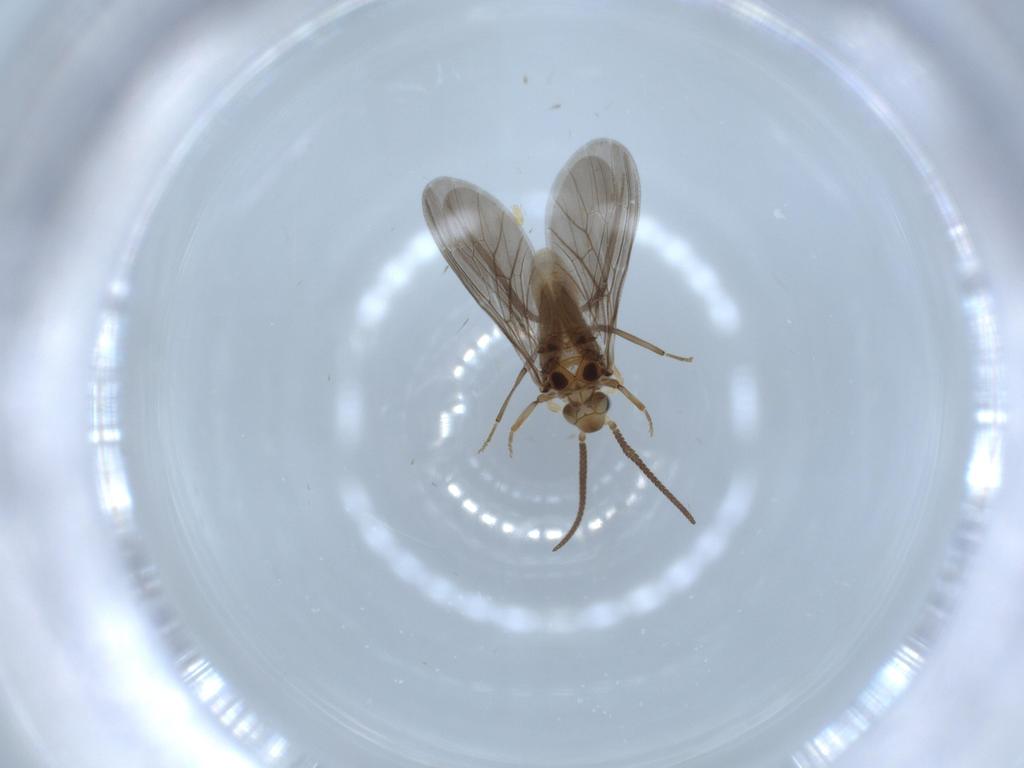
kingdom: Animalia
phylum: Arthropoda
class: Insecta
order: Neuroptera
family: Coniopterygidae
